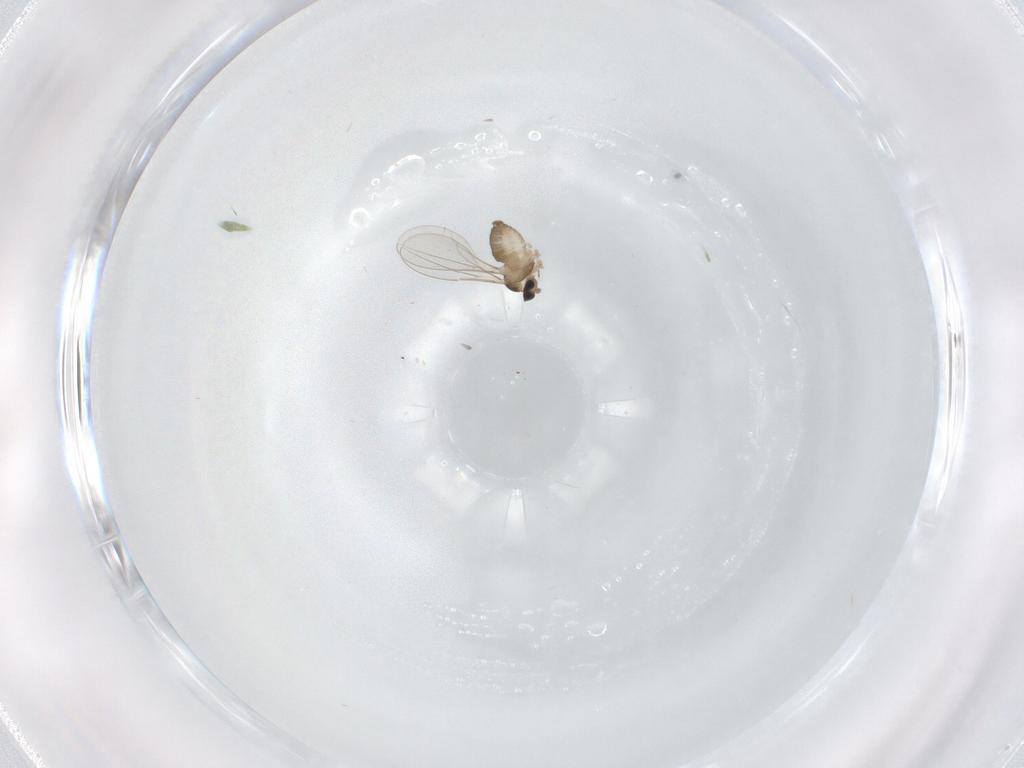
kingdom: Animalia
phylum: Arthropoda
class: Insecta
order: Diptera
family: Cecidomyiidae
